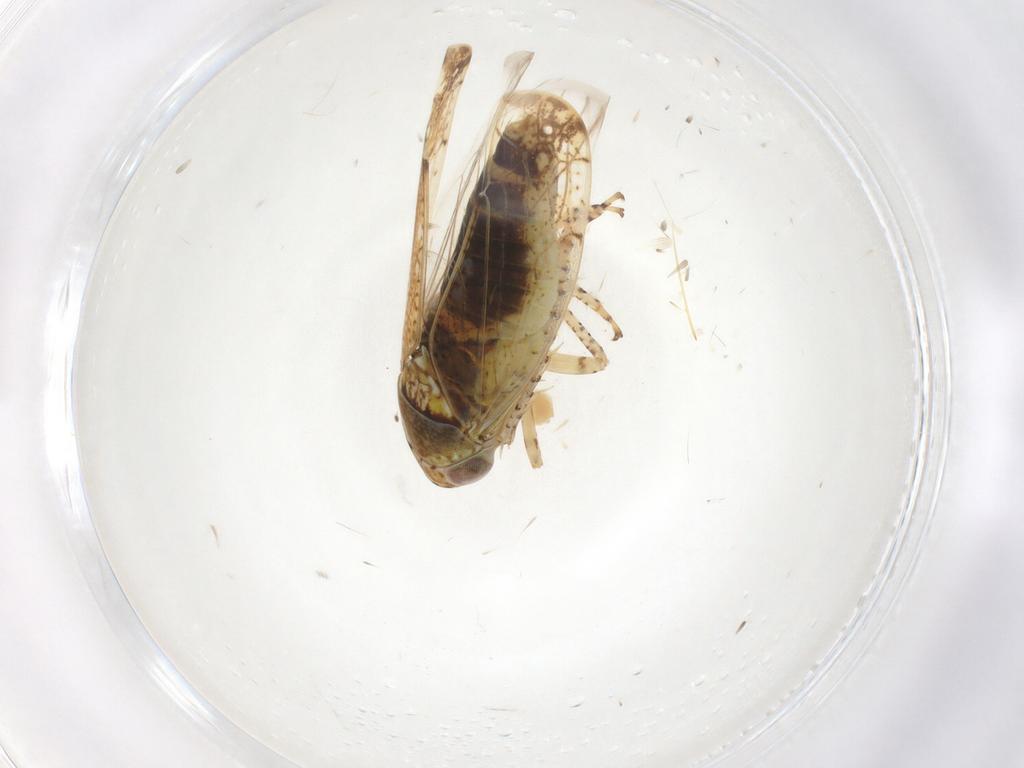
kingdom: Animalia
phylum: Arthropoda
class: Insecta
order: Hemiptera
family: Cicadellidae
